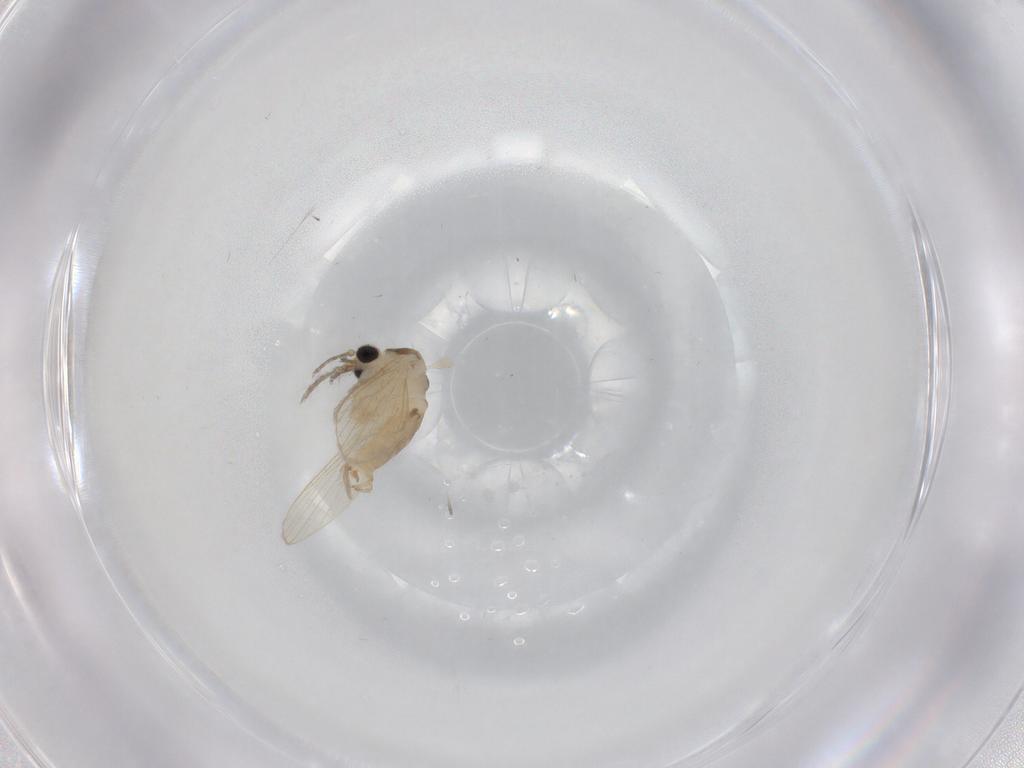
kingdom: Animalia
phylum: Arthropoda
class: Insecta
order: Diptera
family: Psychodidae
